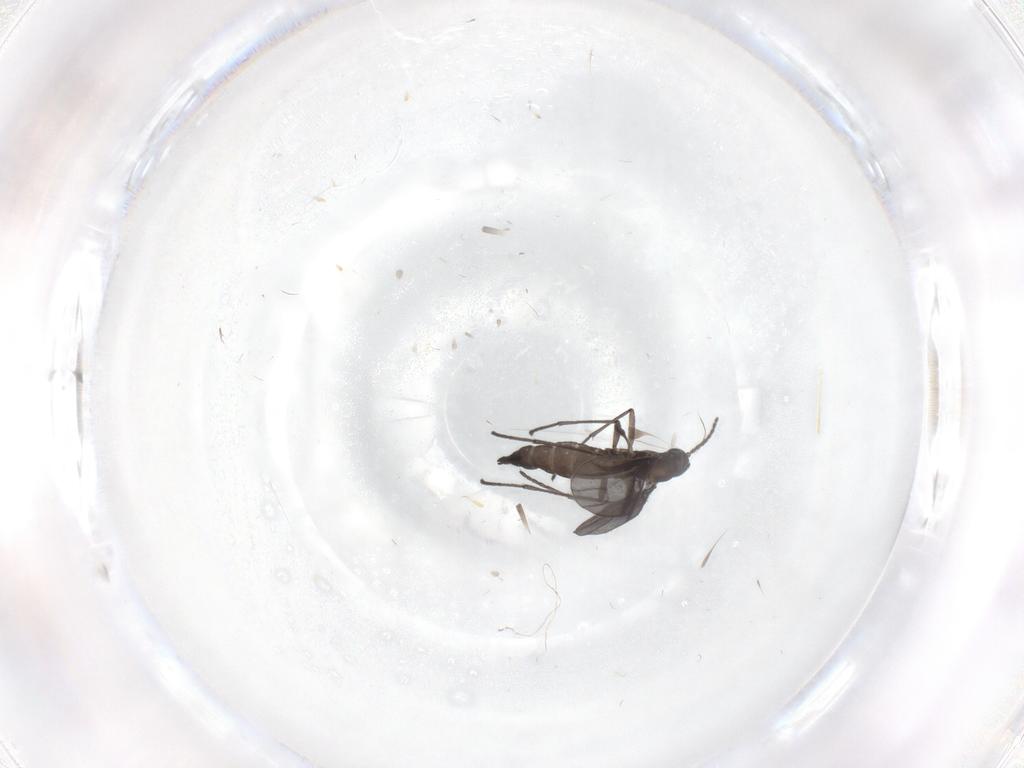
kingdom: Animalia
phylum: Arthropoda
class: Insecta
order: Diptera
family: Sciaridae
